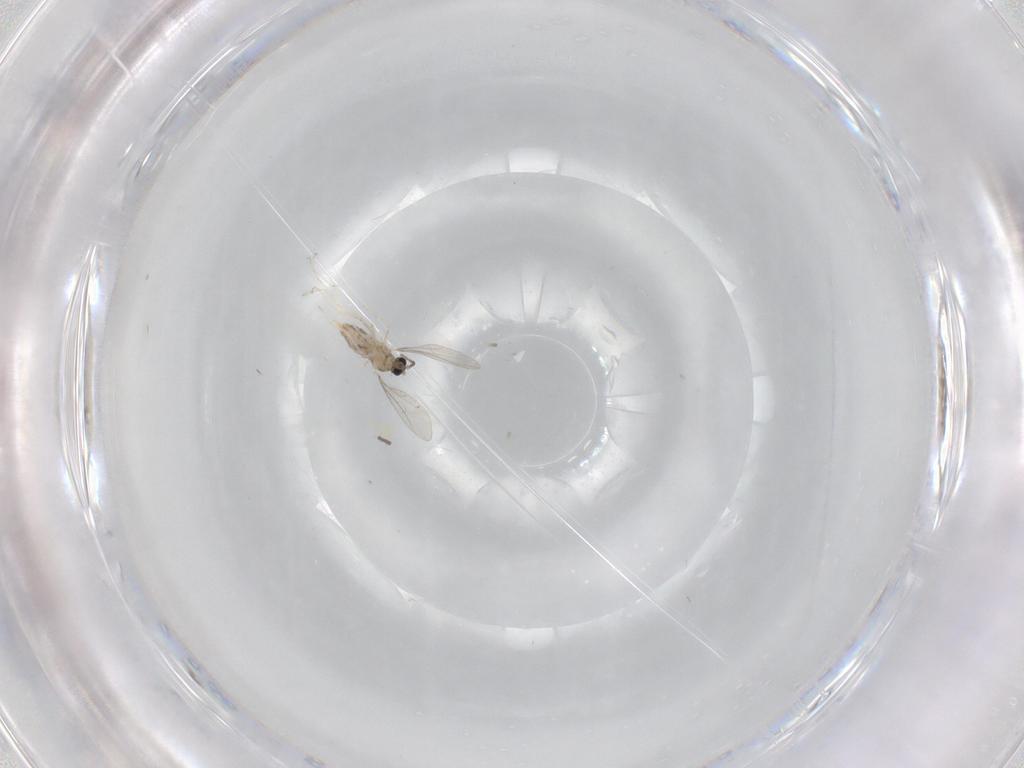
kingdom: Animalia
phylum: Arthropoda
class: Insecta
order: Diptera
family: Cecidomyiidae
